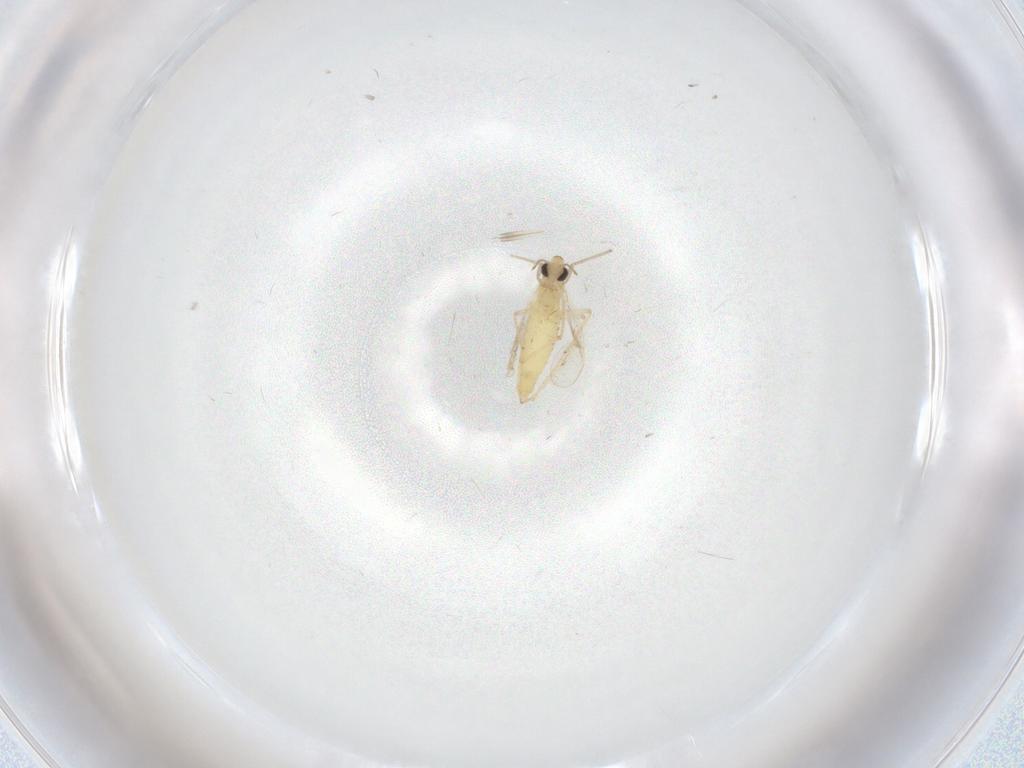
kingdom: Animalia
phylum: Arthropoda
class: Insecta
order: Diptera
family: Chironomidae
